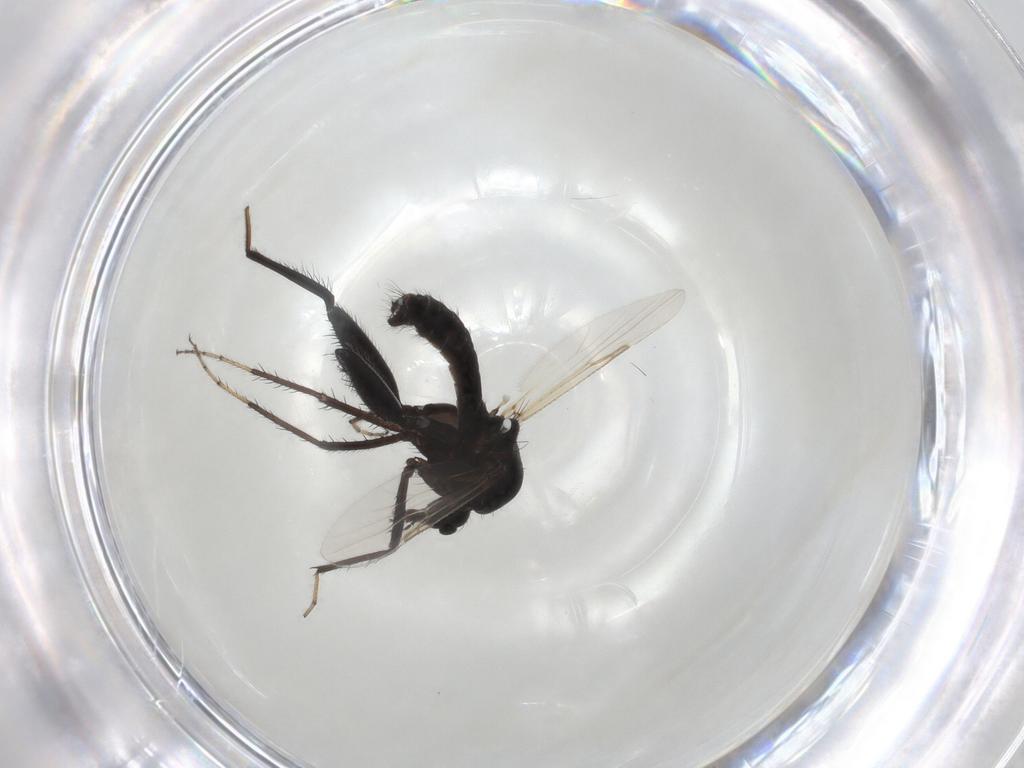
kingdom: Animalia
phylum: Arthropoda
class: Insecta
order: Diptera
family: Ceratopogonidae
